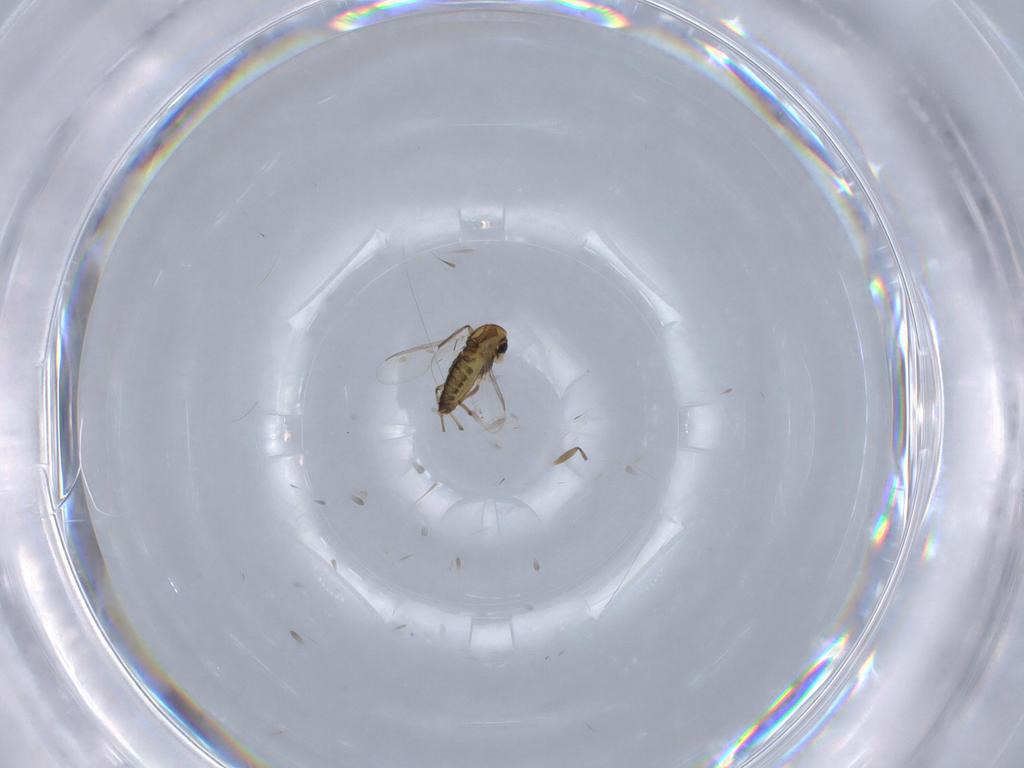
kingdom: Animalia
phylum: Arthropoda
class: Insecta
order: Diptera
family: Chironomidae
